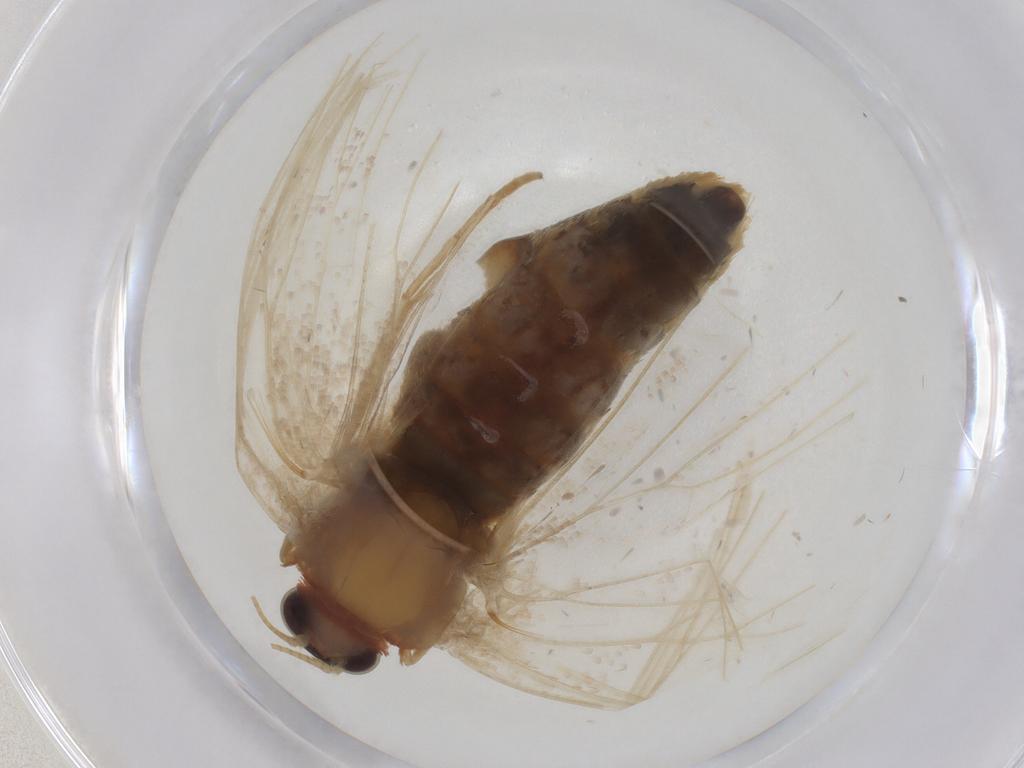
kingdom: Animalia
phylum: Arthropoda
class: Insecta
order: Lepidoptera
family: Geometridae
